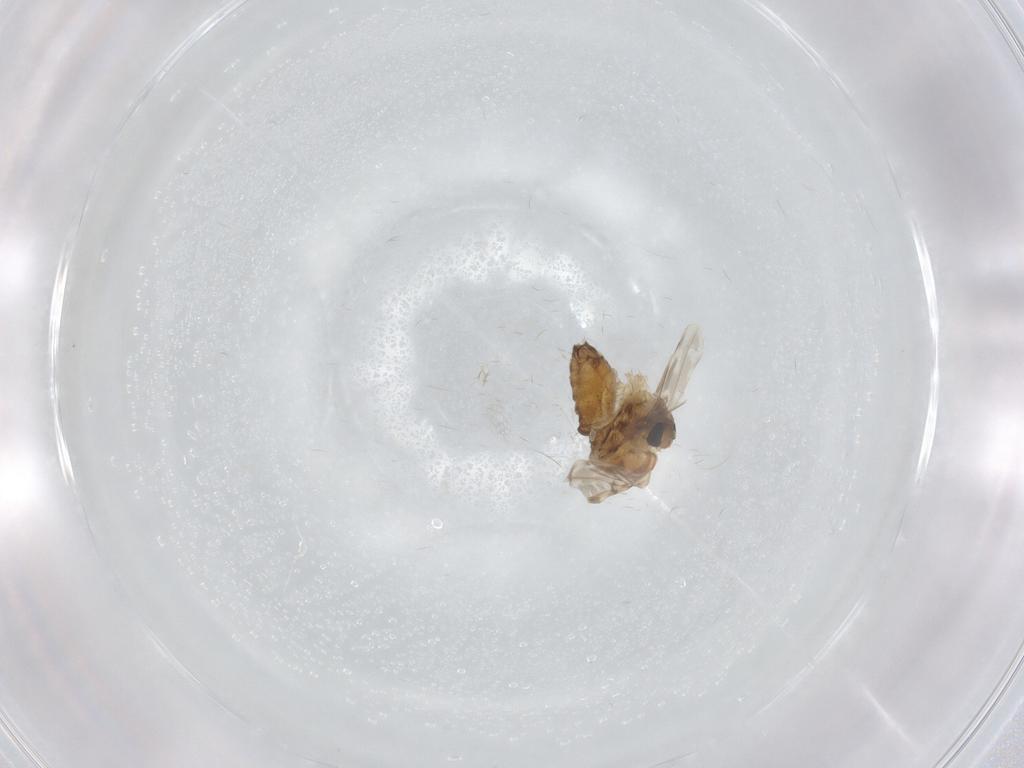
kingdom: Animalia
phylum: Arthropoda
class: Insecta
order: Diptera
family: Chironomidae
